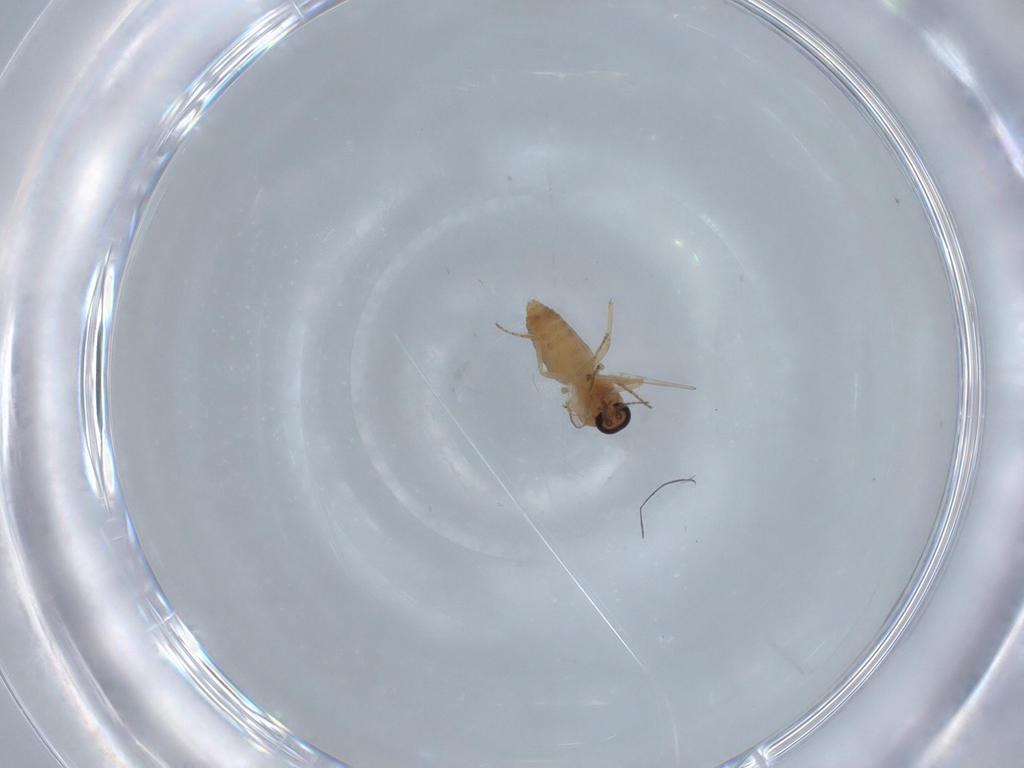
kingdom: Animalia
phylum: Arthropoda
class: Insecta
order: Diptera
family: Ceratopogonidae
